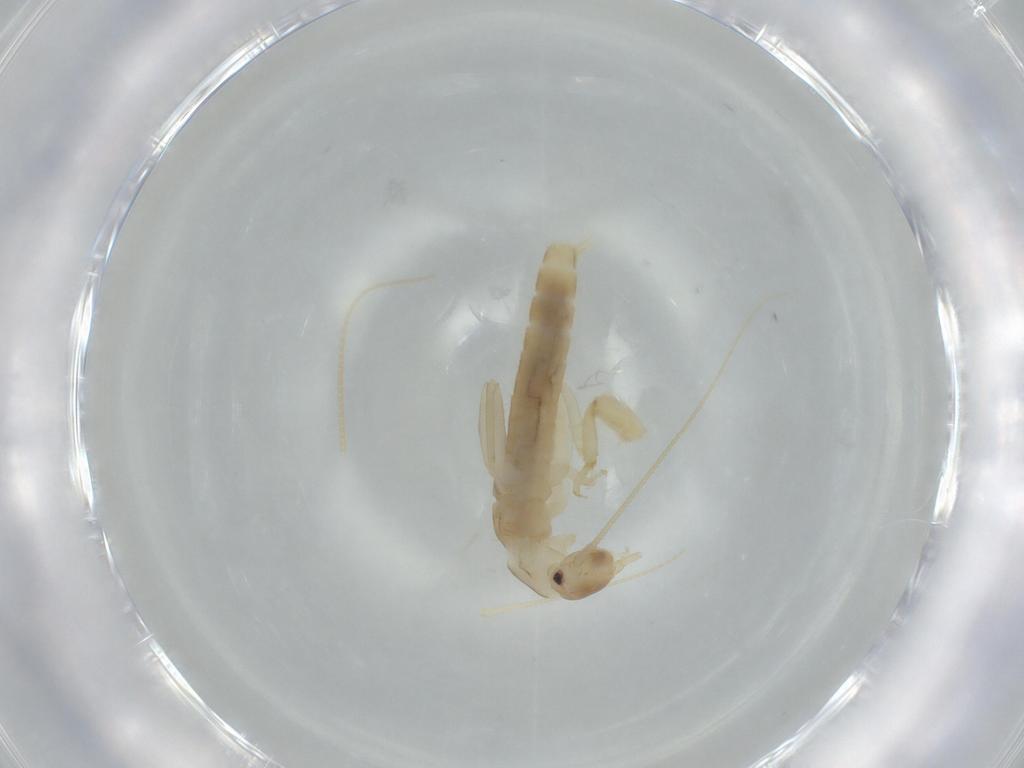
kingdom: Animalia
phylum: Arthropoda
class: Insecta
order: Plecoptera
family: Leuctridae
